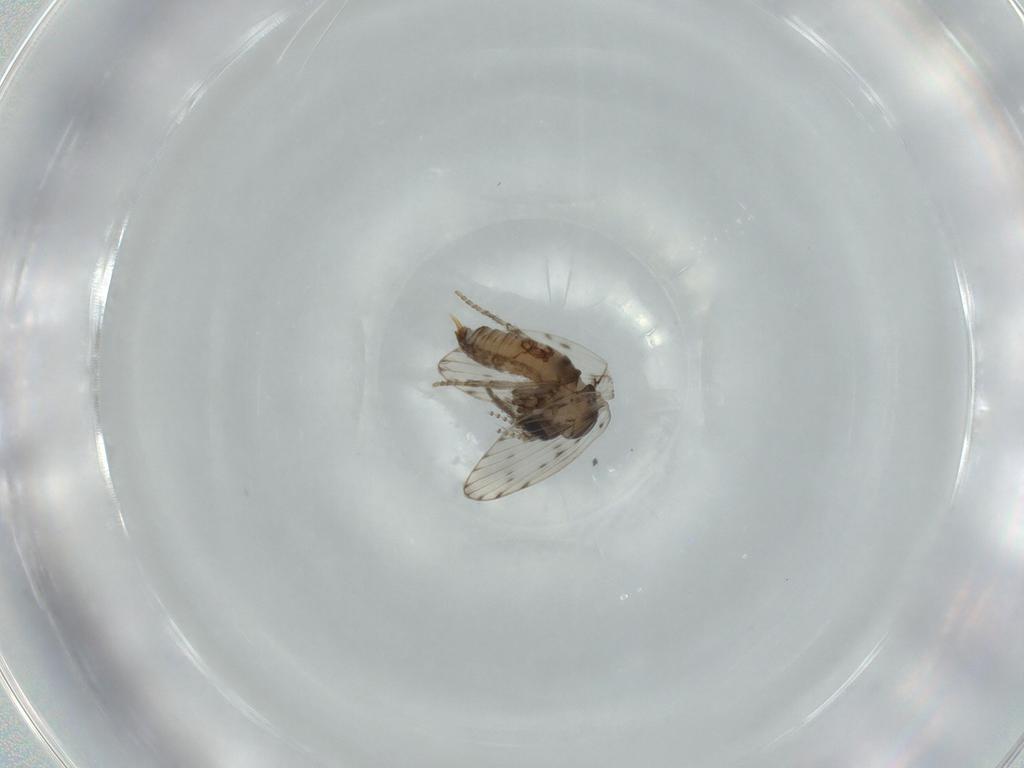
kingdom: Animalia
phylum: Arthropoda
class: Insecta
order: Diptera
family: Psychodidae
